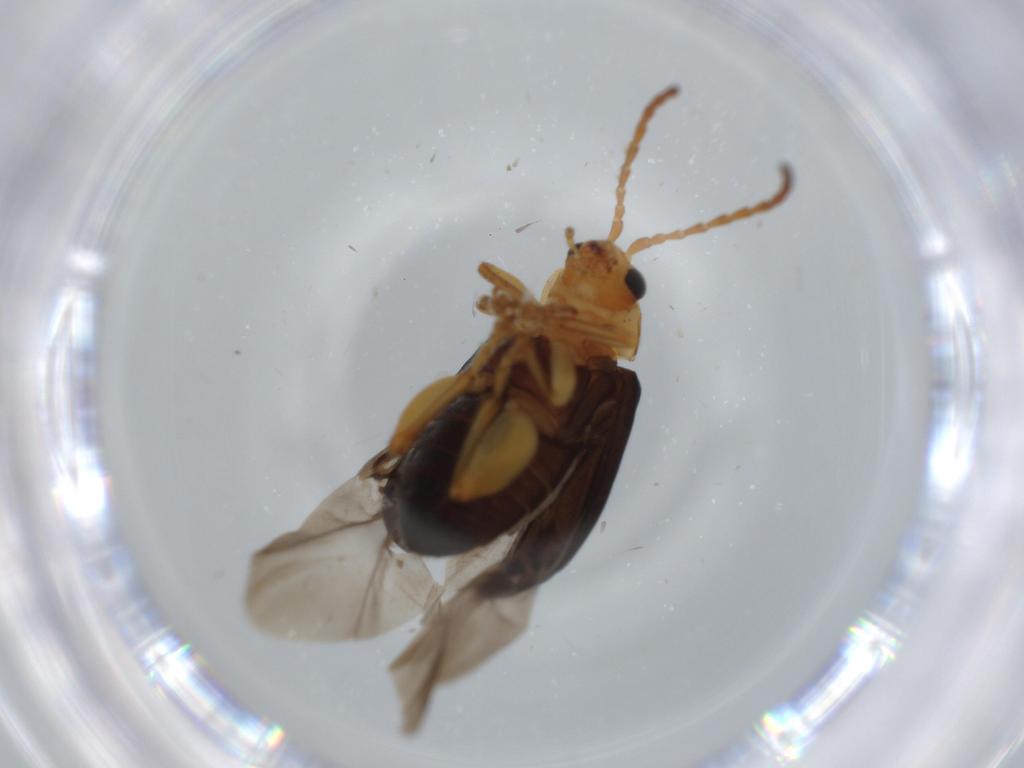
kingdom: Animalia
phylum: Arthropoda
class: Insecta
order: Coleoptera
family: Chrysomelidae
